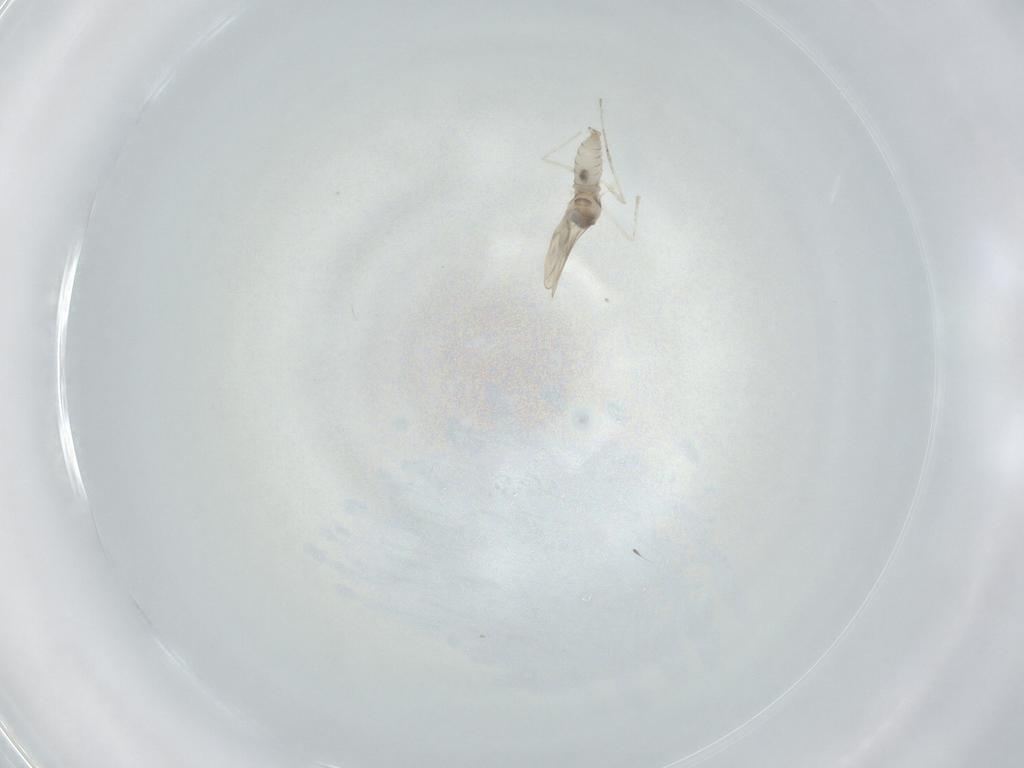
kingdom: Animalia
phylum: Arthropoda
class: Insecta
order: Diptera
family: Cecidomyiidae
